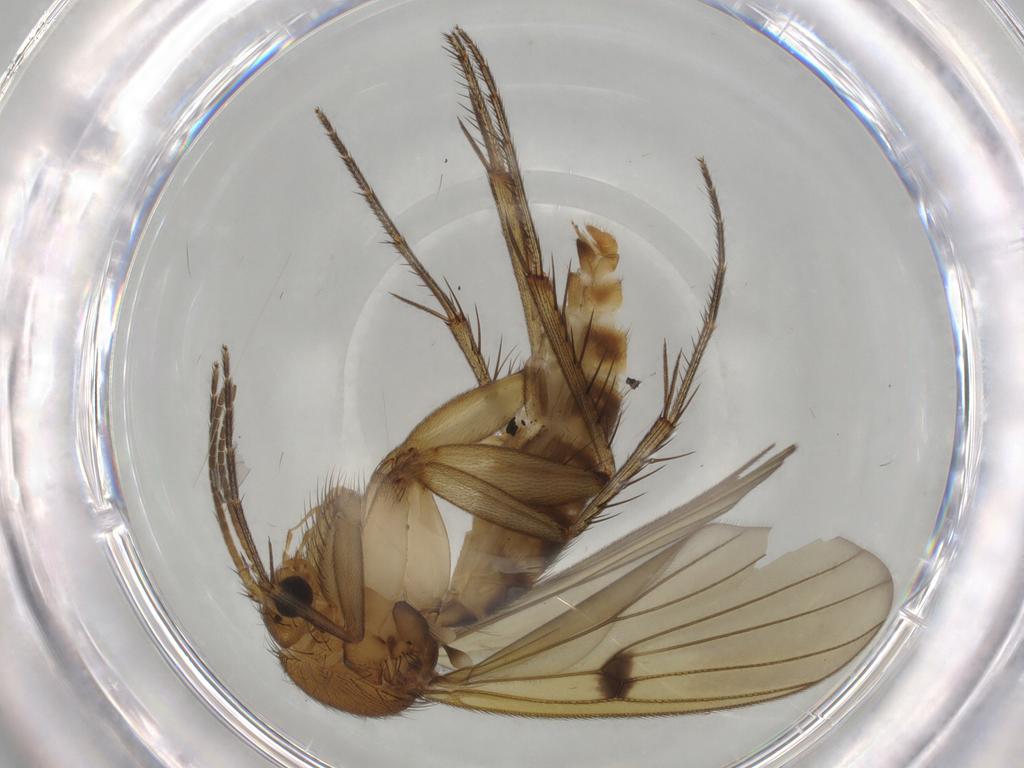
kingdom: Animalia
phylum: Arthropoda
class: Insecta
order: Diptera
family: Mycetophilidae
